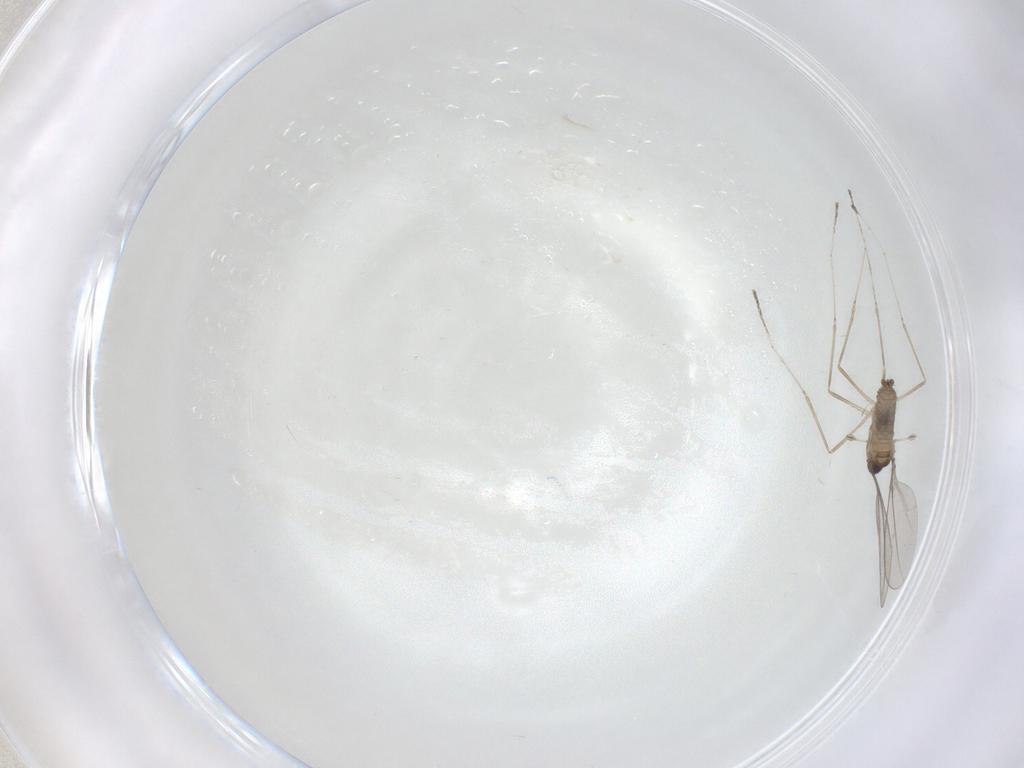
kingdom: Animalia
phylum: Arthropoda
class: Insecta
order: Diptera
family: Cecidomyiidae
